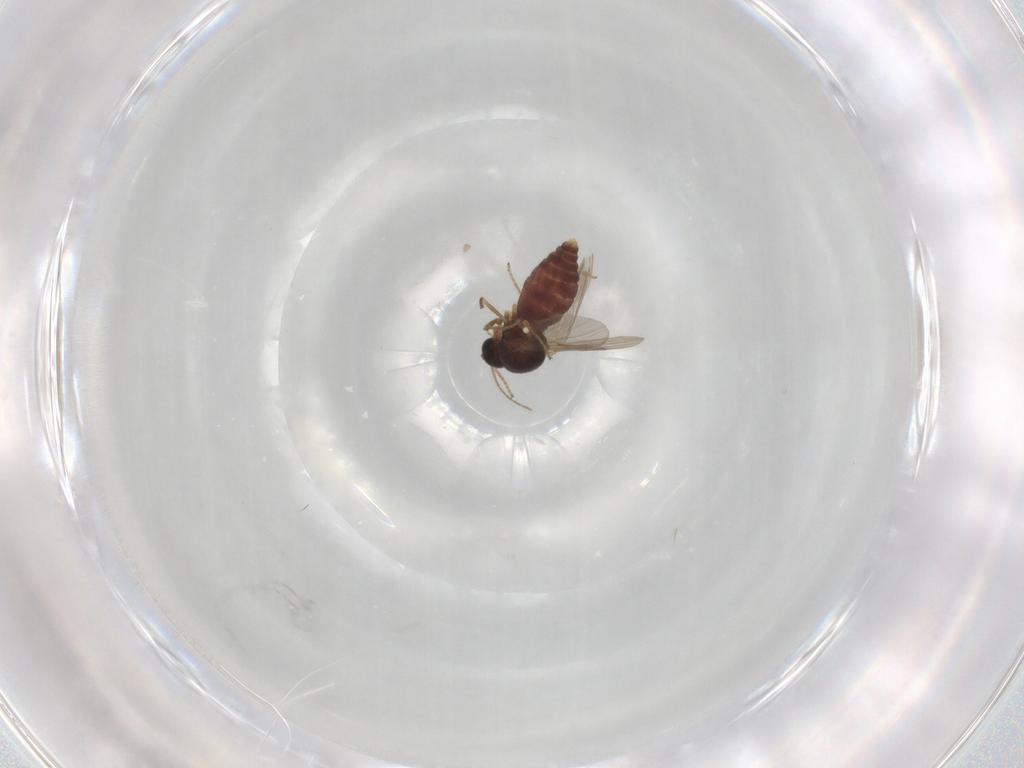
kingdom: Animalia
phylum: Arthropoda
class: Insecta
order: Diptera
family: Ceratopogonidae
